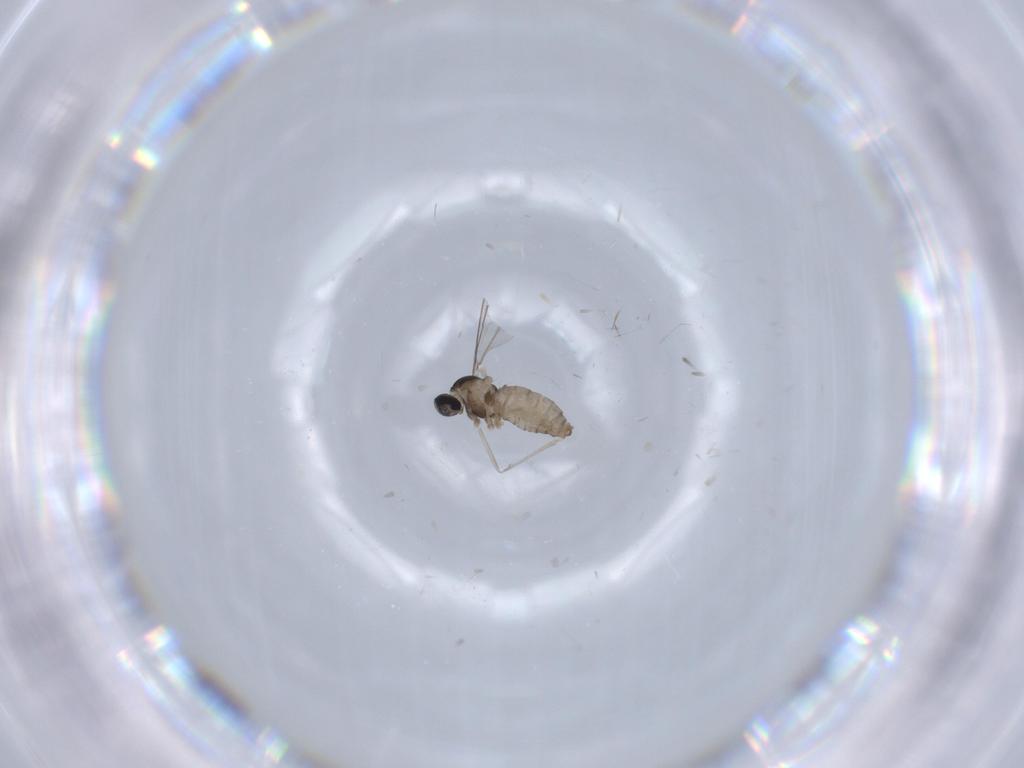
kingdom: Animalia
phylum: Arthropoda
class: Insecta
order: Diptera
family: Cecidomyiidae
